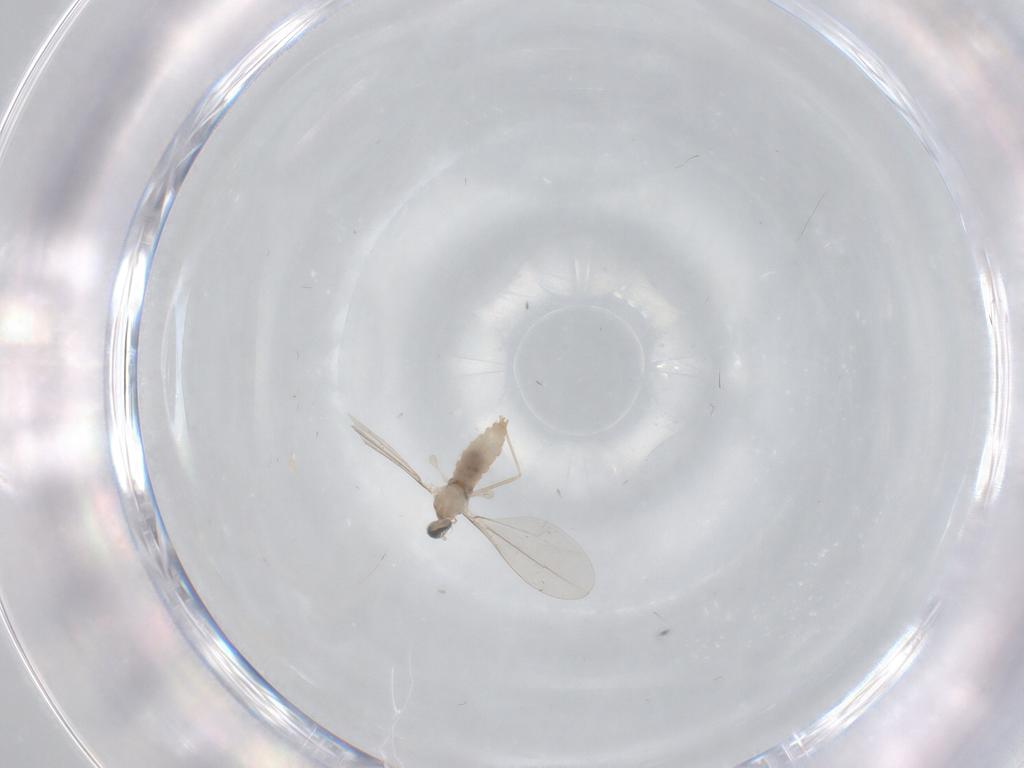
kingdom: Animalia
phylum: Arthropoda
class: Insecta
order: Diptera
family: Cecidomyiidae
